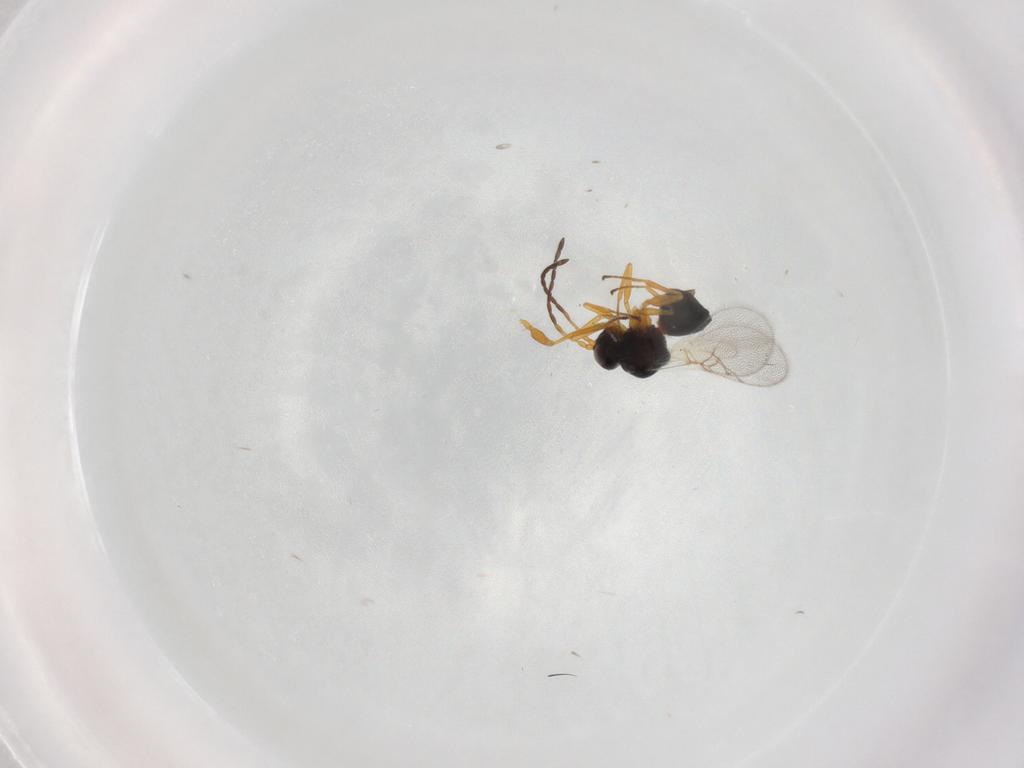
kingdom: Animalia
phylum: Arthropoda
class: Insecta
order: Hymenoptera
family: Figitidae
